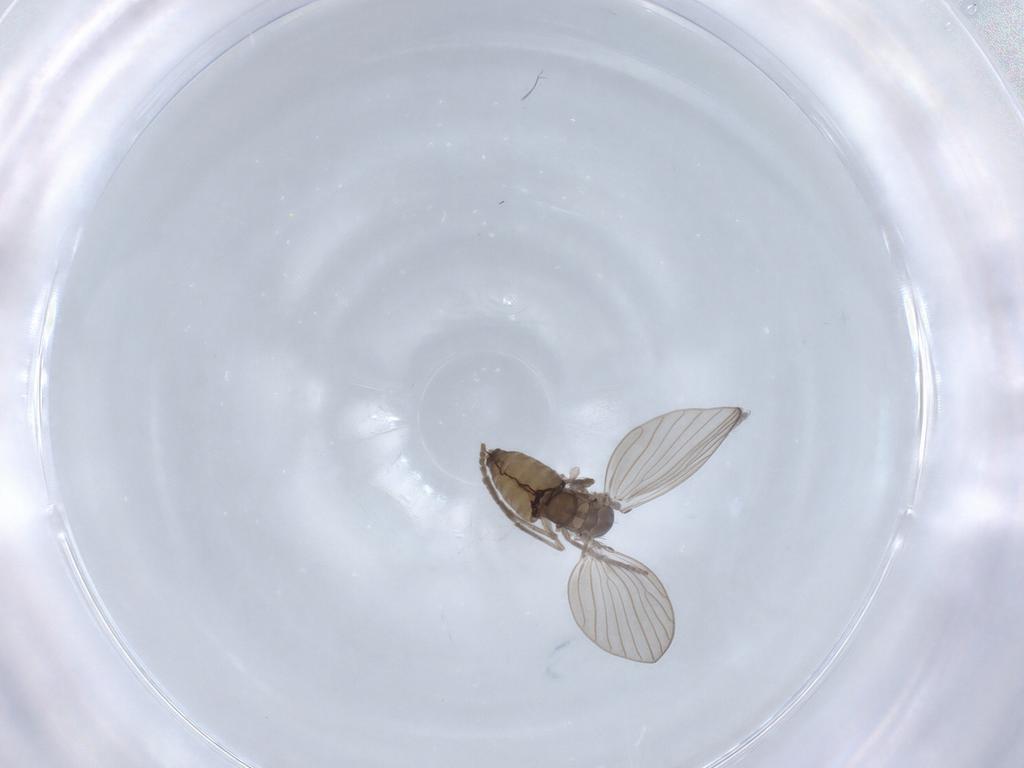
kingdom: Animalia
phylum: Arthropoda
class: Insecta
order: Diptera
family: Psychodidae
